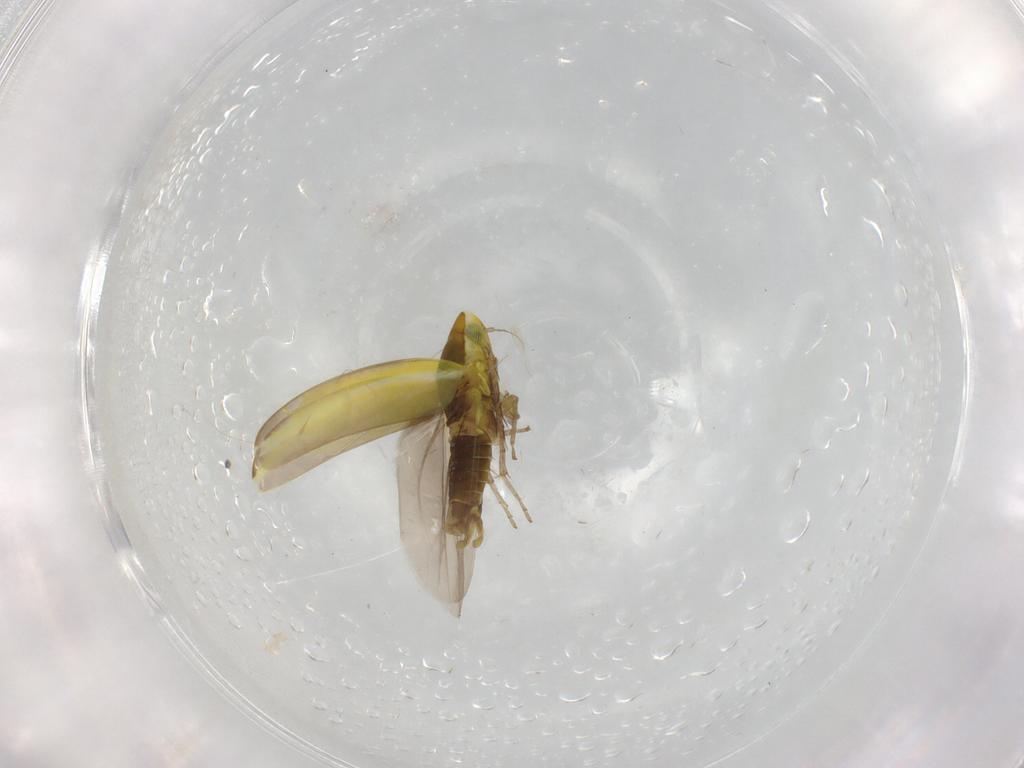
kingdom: Animalia
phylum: Arthropoda
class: Insecta
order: Hemiptera
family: Cicadellidae
